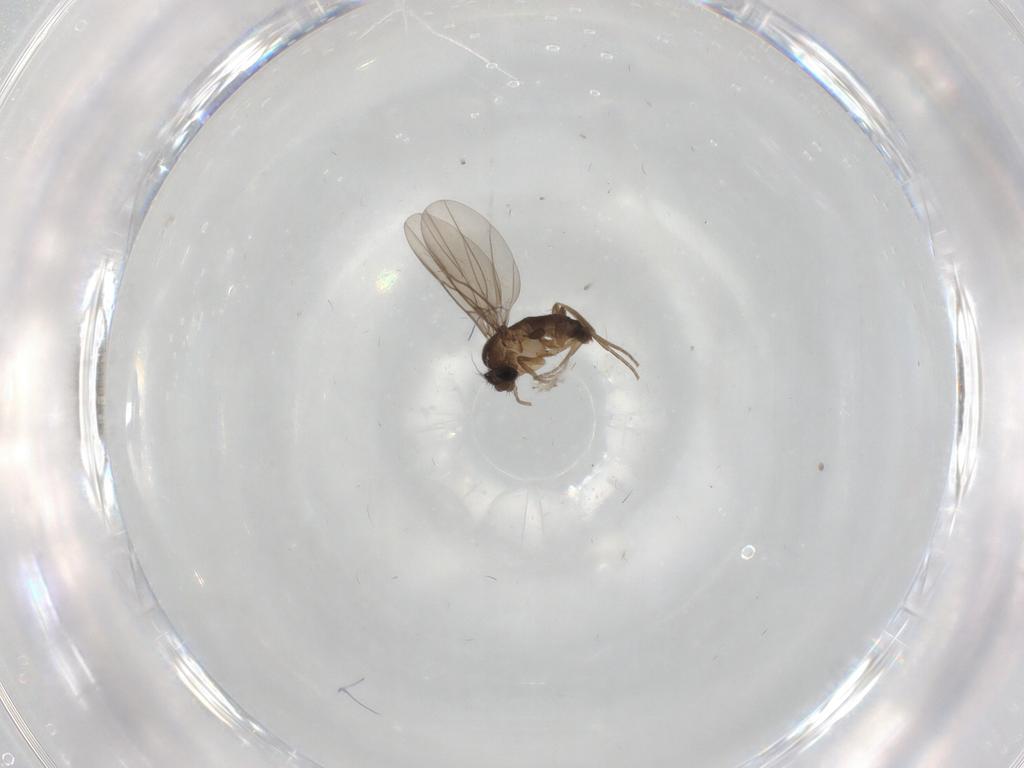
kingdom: Animalia
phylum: Arthropoda
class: Insecta
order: Diptera
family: Phoridae
